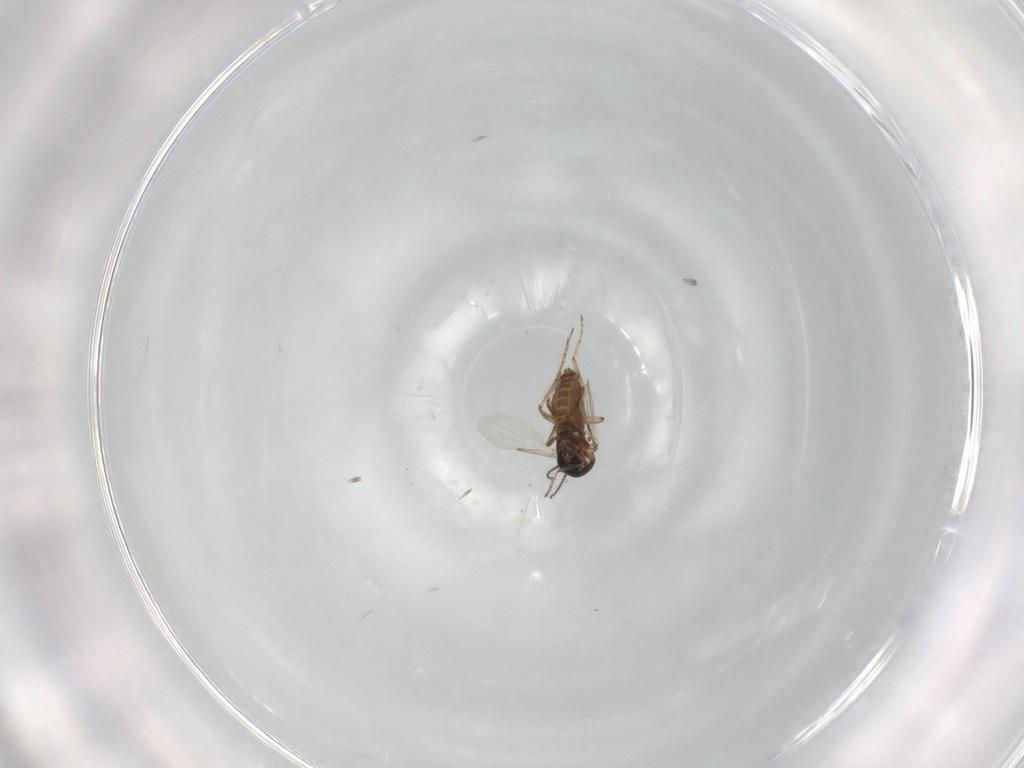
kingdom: Animalia
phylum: Arthropoda
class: Insecta
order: Diptera
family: Ceratopogonidae
